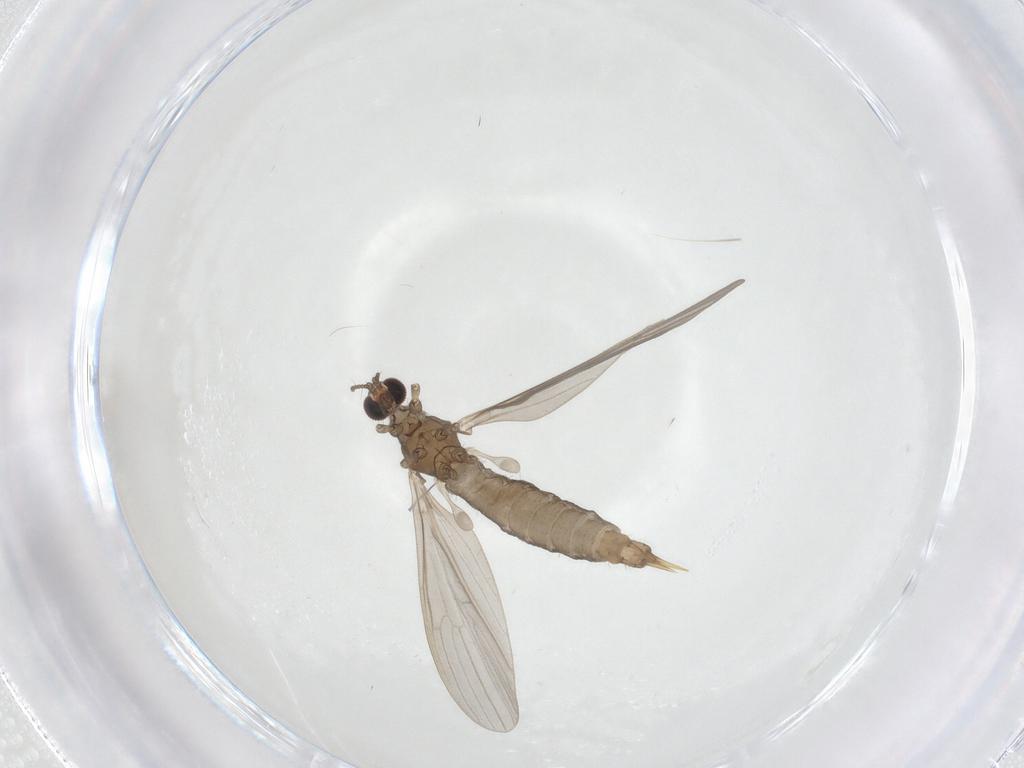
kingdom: Animalia
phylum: Arthropoda
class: Insecta
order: Diptera
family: Limoniidae
